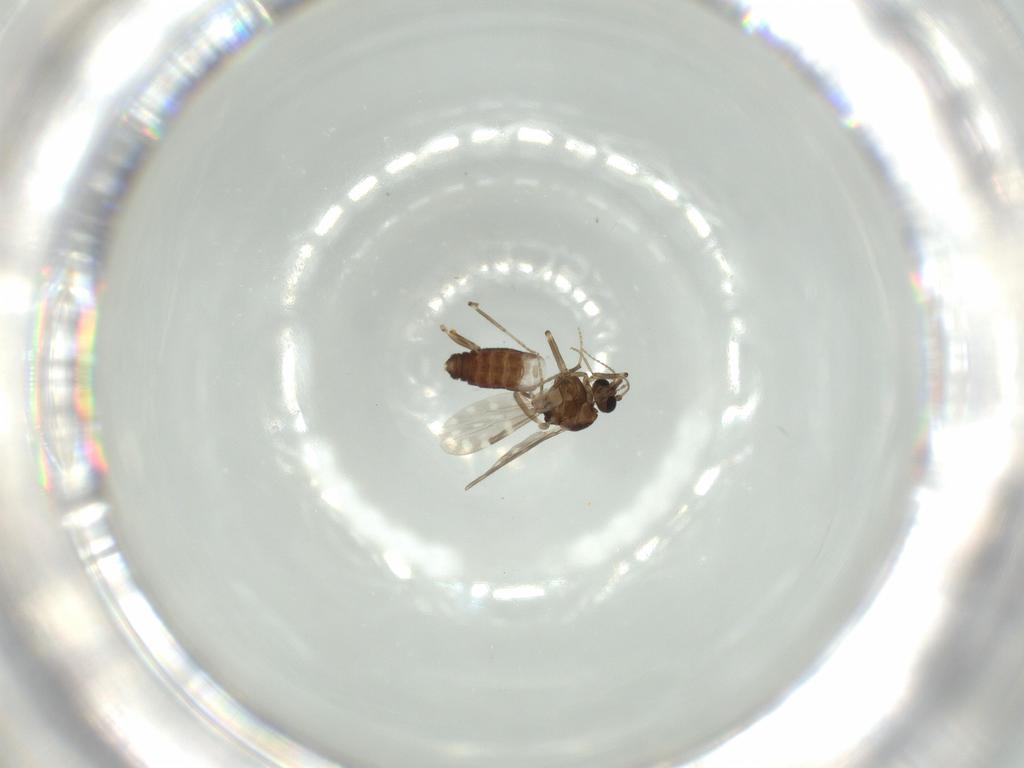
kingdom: Animalia
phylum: Arthropoda
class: Insecta
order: Diptera
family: Ceratopogonidae
